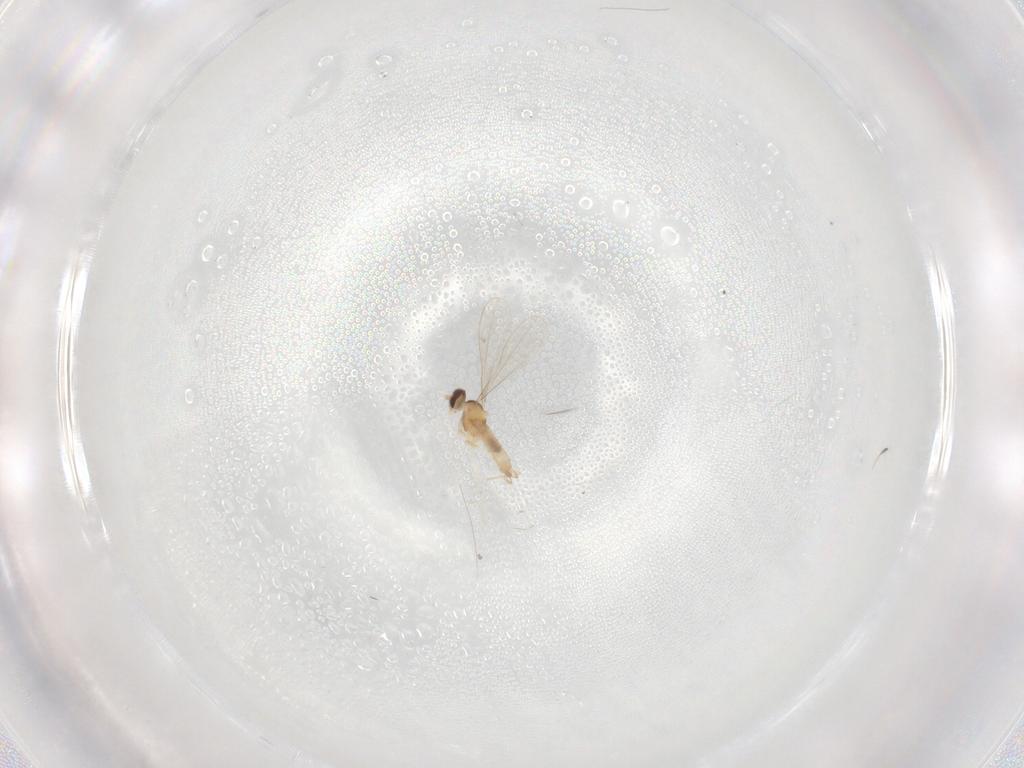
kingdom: Animalia
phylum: Arthropoda
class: Insecta
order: Diptera
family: Cecidomyiidae
